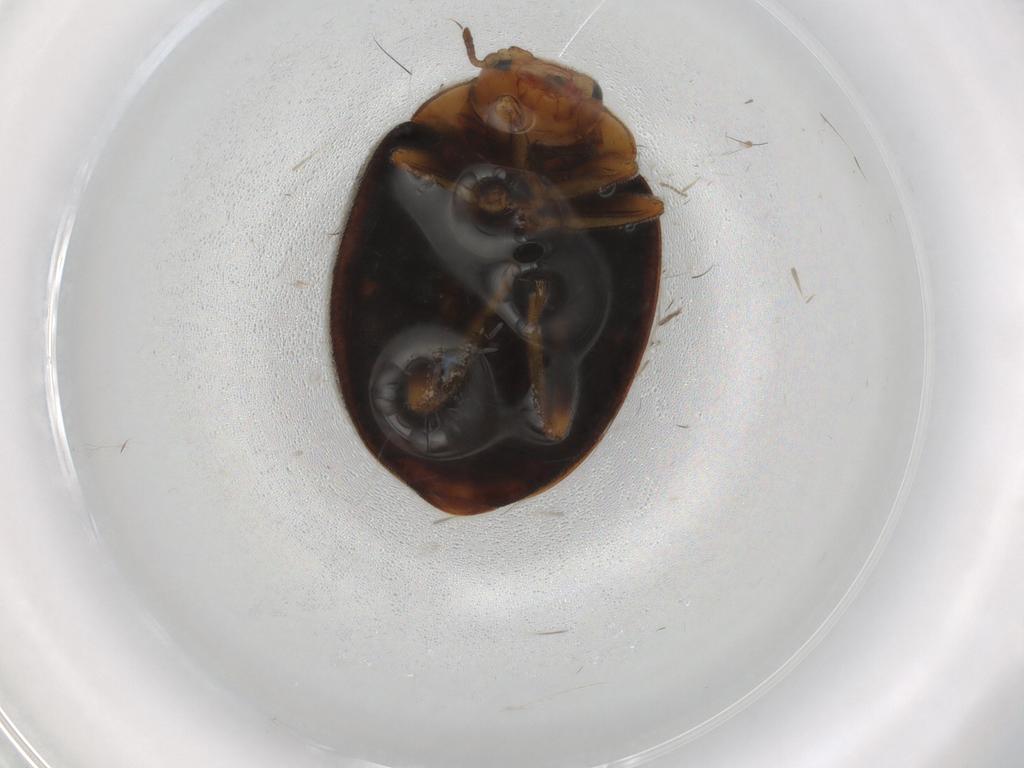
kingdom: Animalia
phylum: Arthropoda
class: Insecta
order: Coleoptera
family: Coccinellidae
